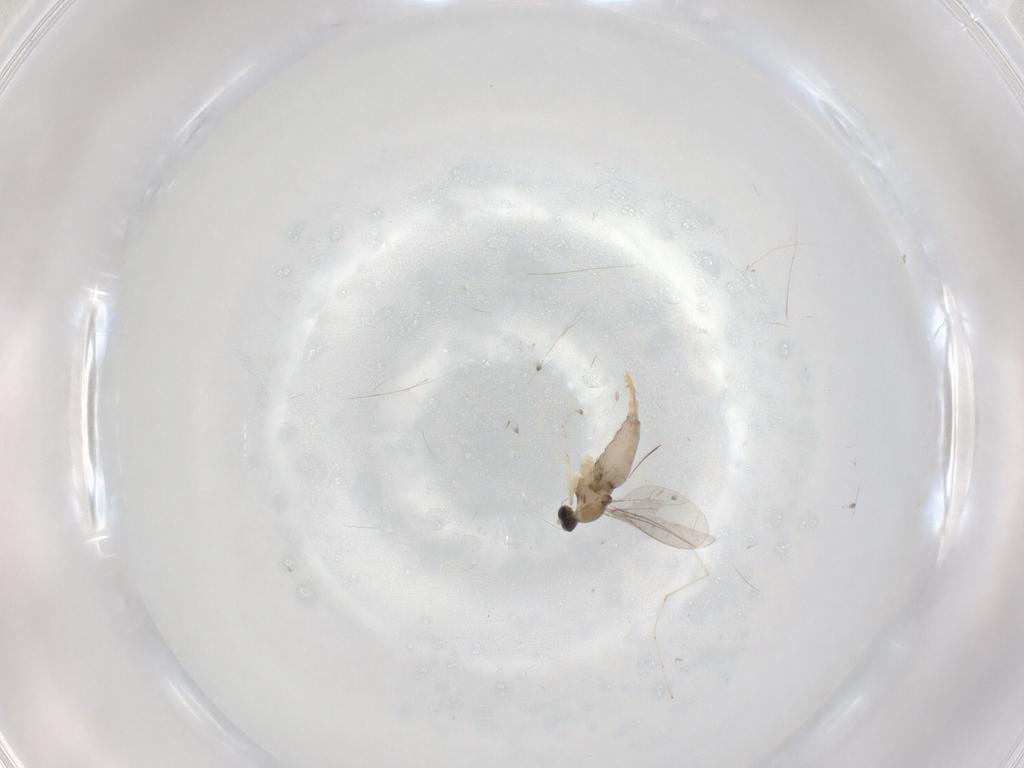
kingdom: Animalia
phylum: Arthropoda
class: Insecta
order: Diptera
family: Cecidomyiidae
